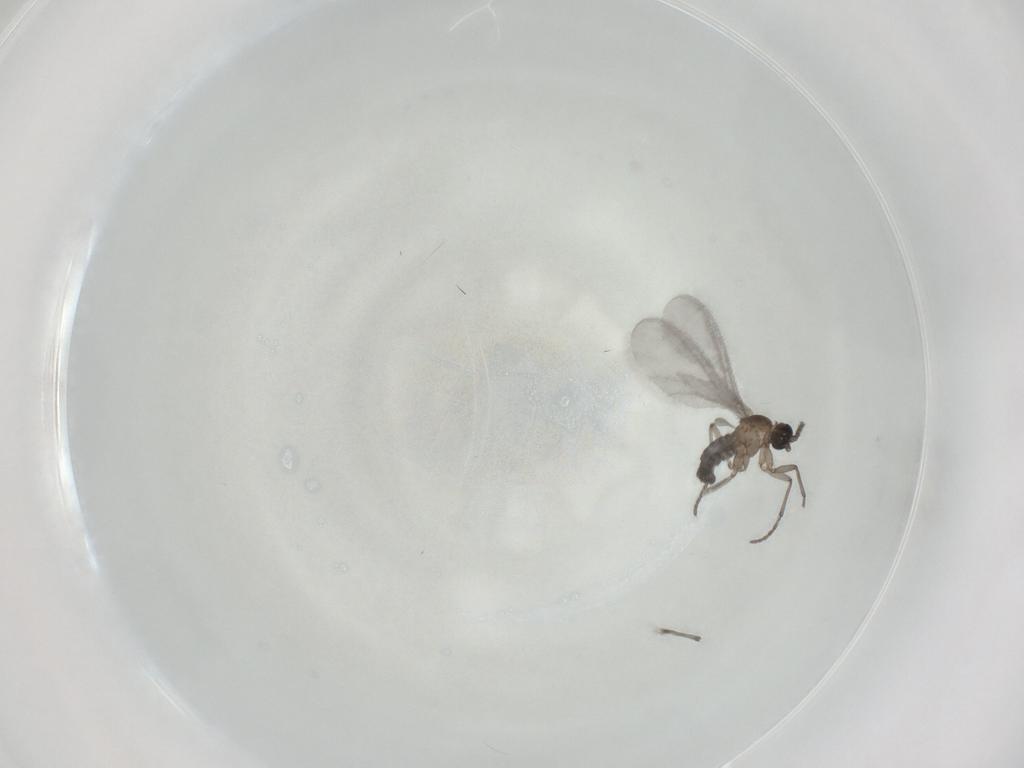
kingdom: Animalia
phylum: Arthropoda
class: Insecta
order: Diptera
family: Sciaridae
